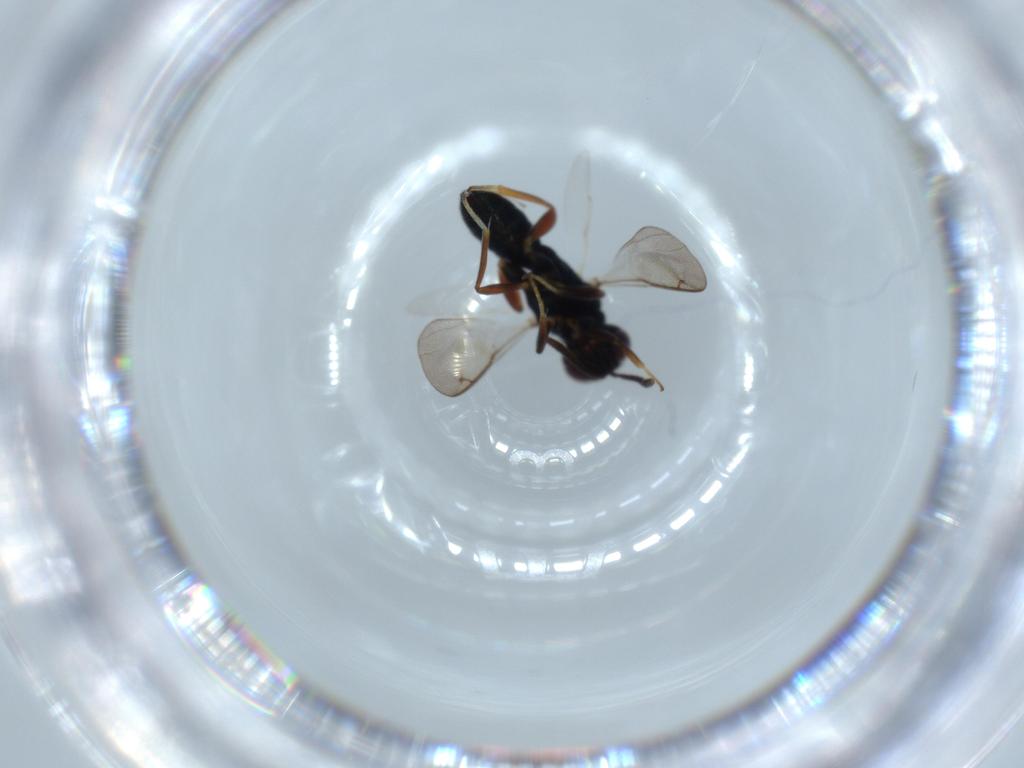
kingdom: Animalia
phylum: Arthropoda
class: Insecta
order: Hymenoptera
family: Trichogrammatidae
